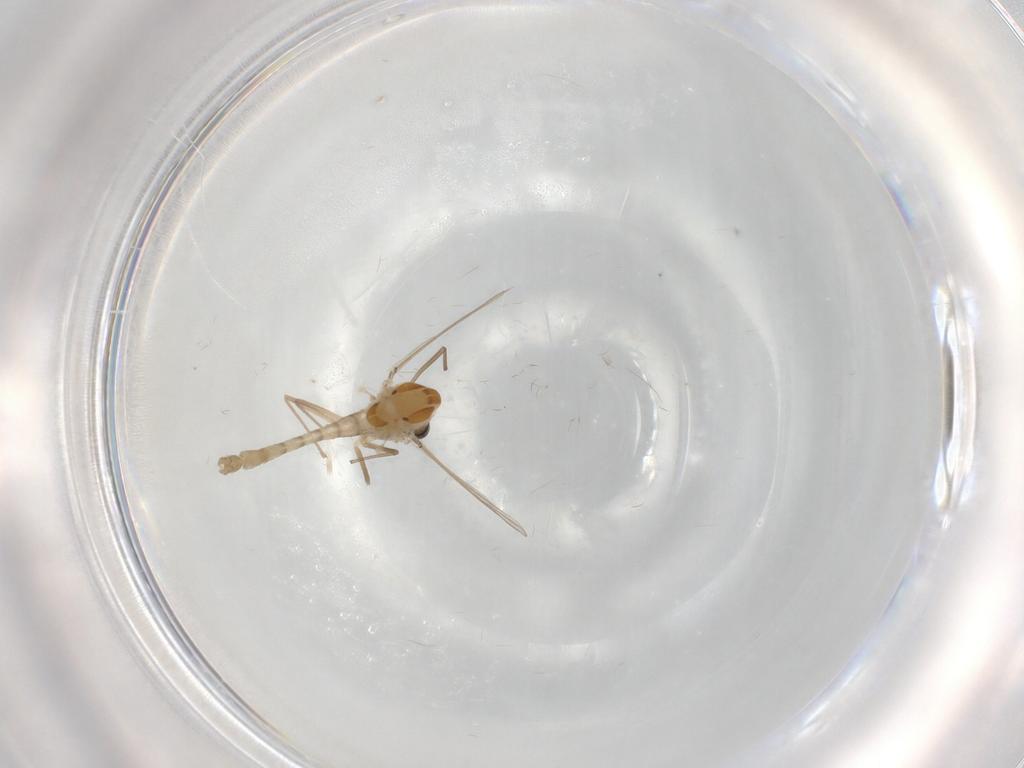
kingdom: Animalia
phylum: Arthropoda
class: Insecta
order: Diptera
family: Chironomidae
